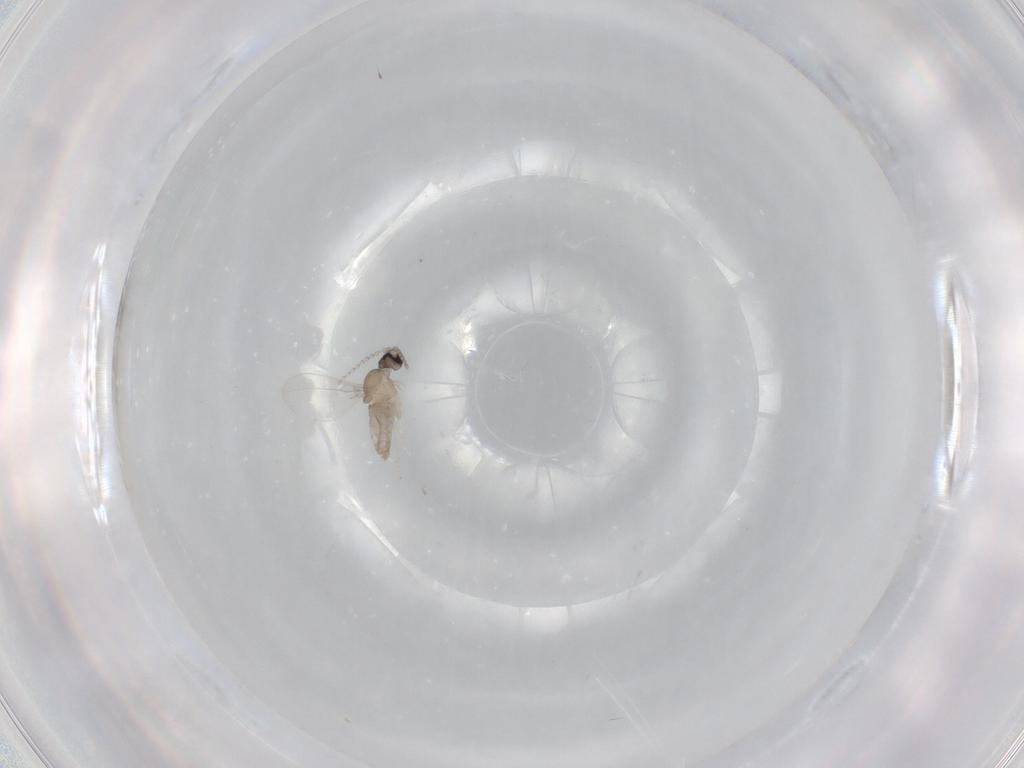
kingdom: Animalia
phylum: Arthropoda
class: Insecta
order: Diptera
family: Cecidomyiidae
